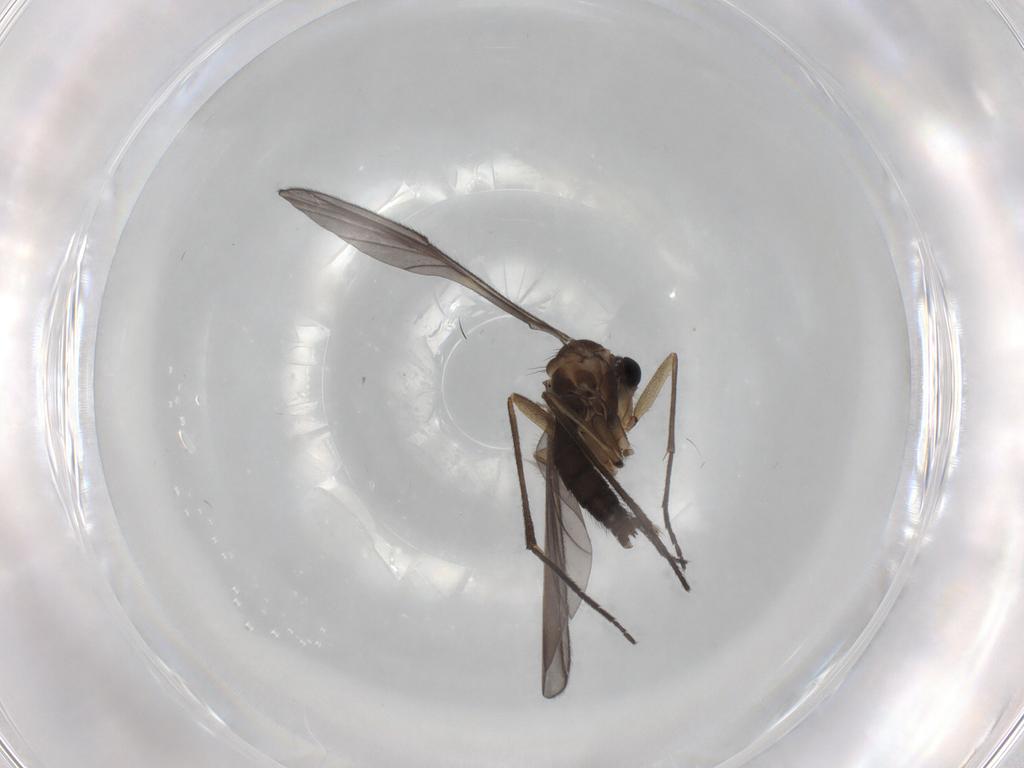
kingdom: Animalia
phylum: Arthropoda
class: Insecta
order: Diptera
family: Sciaridae
